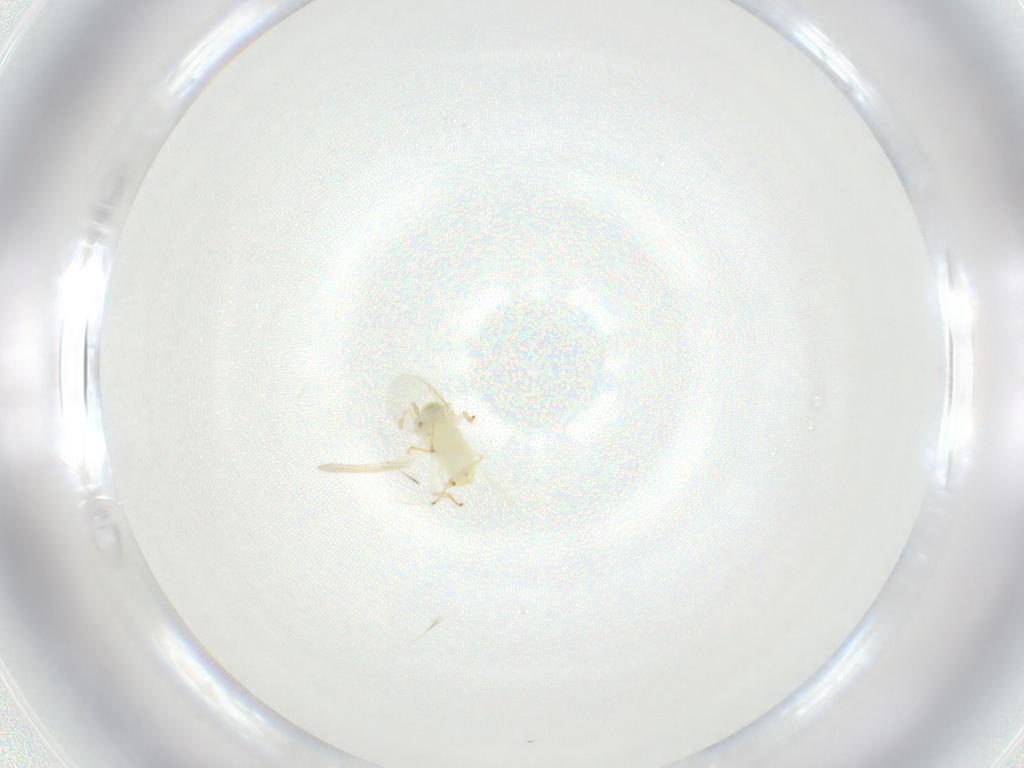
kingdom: Animalia
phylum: Arthropoda
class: Insecta
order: Hymenoptera
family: Aphelinidae
